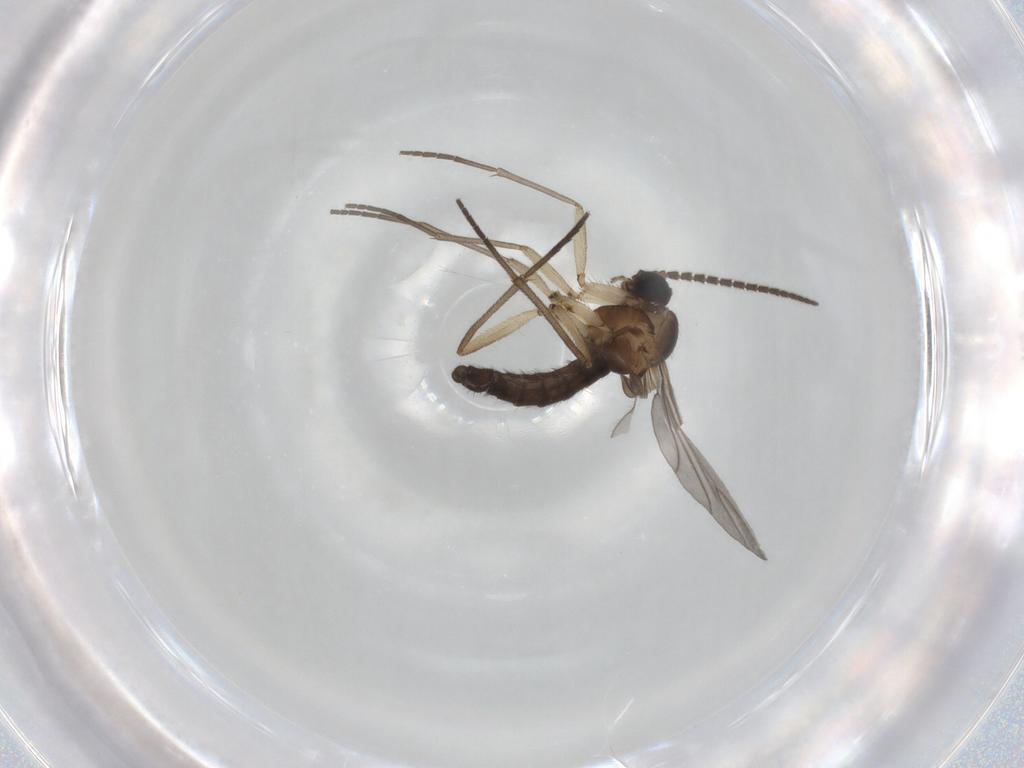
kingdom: Animalia
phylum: Arthropoda
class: Insecta
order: Diptera
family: Sciaridae
